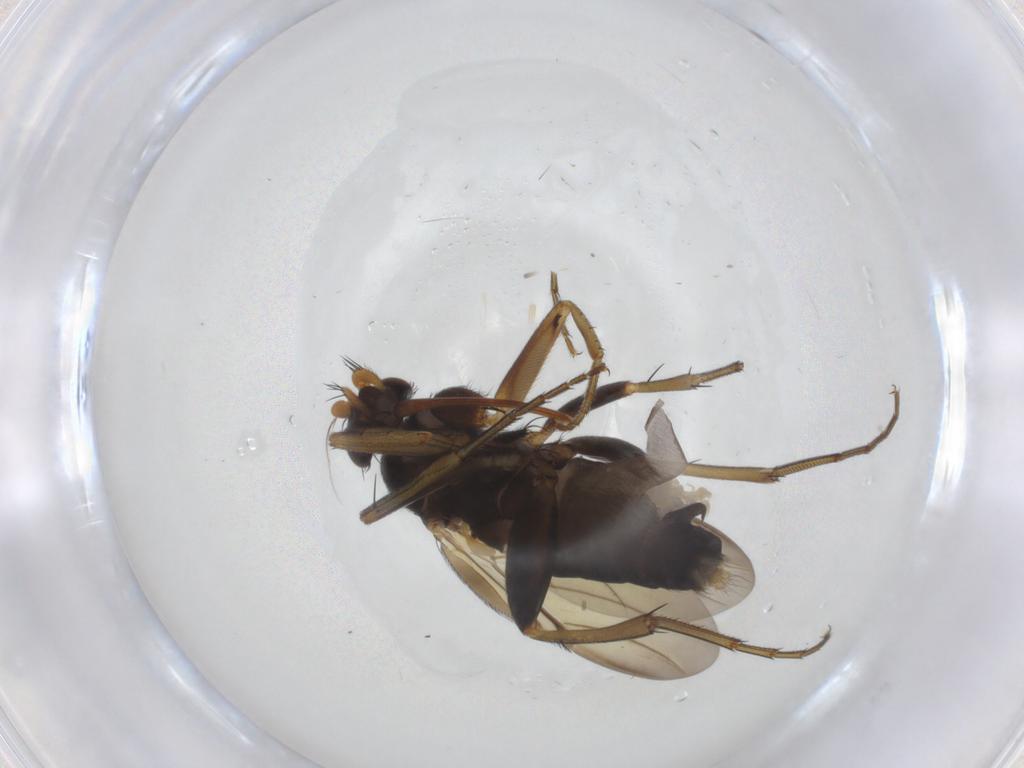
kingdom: Animalia
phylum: Arthropoda
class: Insecta
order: Diptera
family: Phoridae
